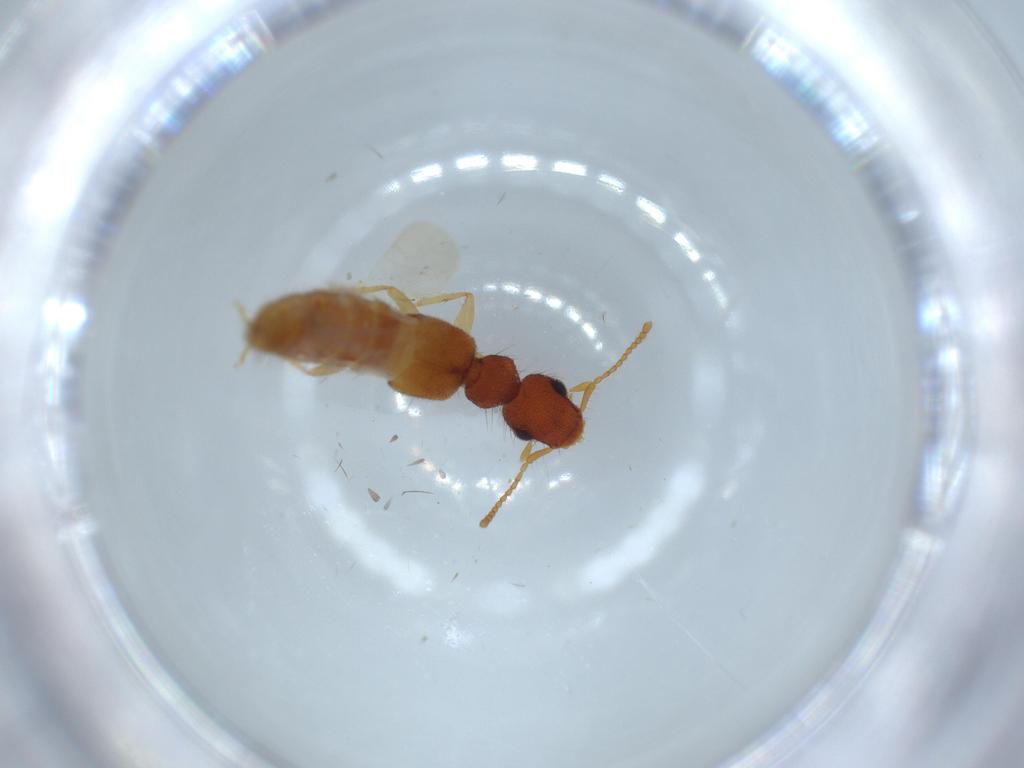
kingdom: Animalia
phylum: Arthropoda
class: Insecta
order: Coleoptera
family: Staphylinidae
